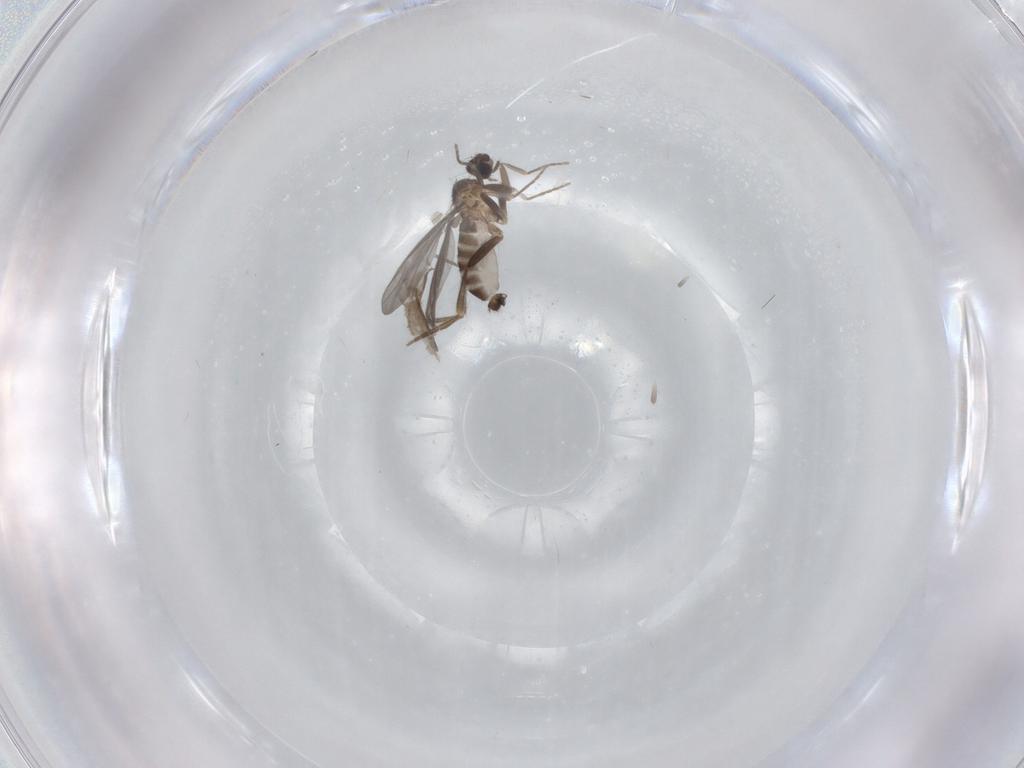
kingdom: Animalia
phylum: Arthropoda
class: Insecta
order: Diptera
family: Phoridae
